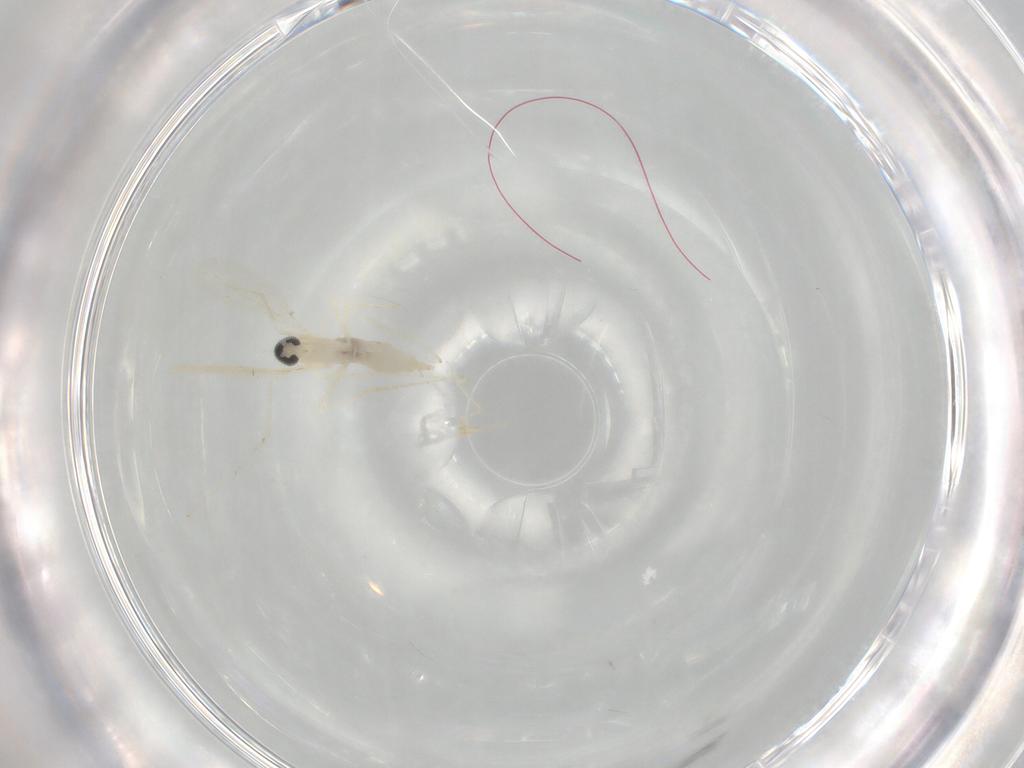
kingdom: Animalia
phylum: Arthropoda
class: Insecta
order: Diptera
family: Cecidomyiidae
